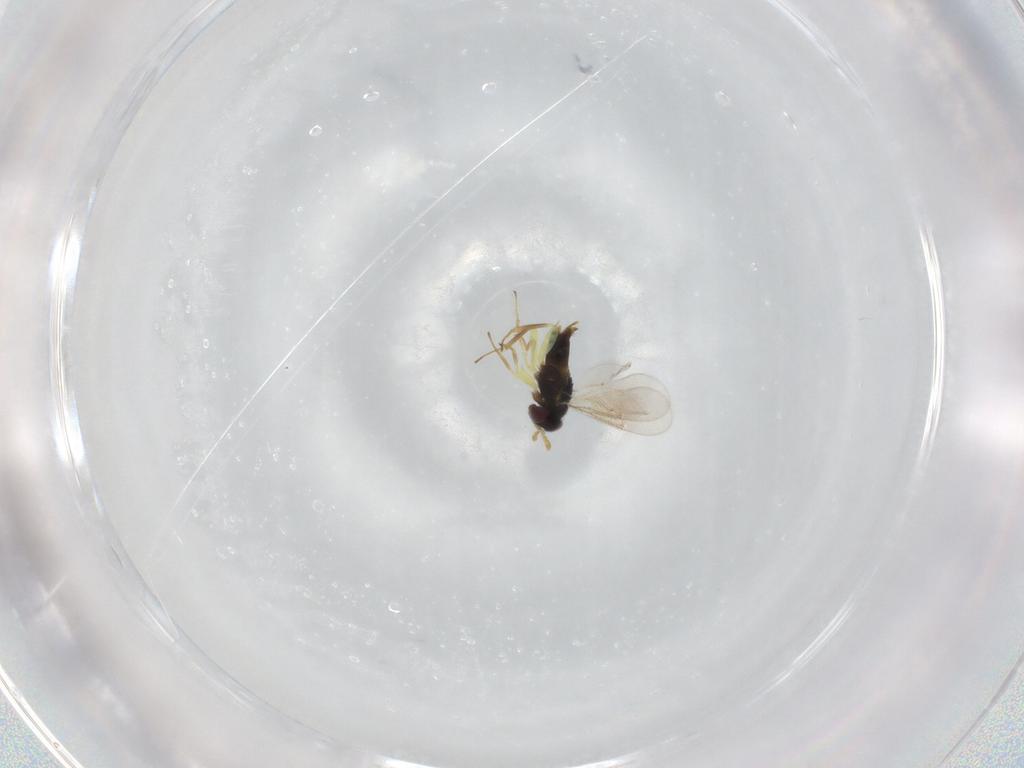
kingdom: Animalia
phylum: Arthropoda
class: Insecta
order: Hymenoptera
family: Aphelinidae
